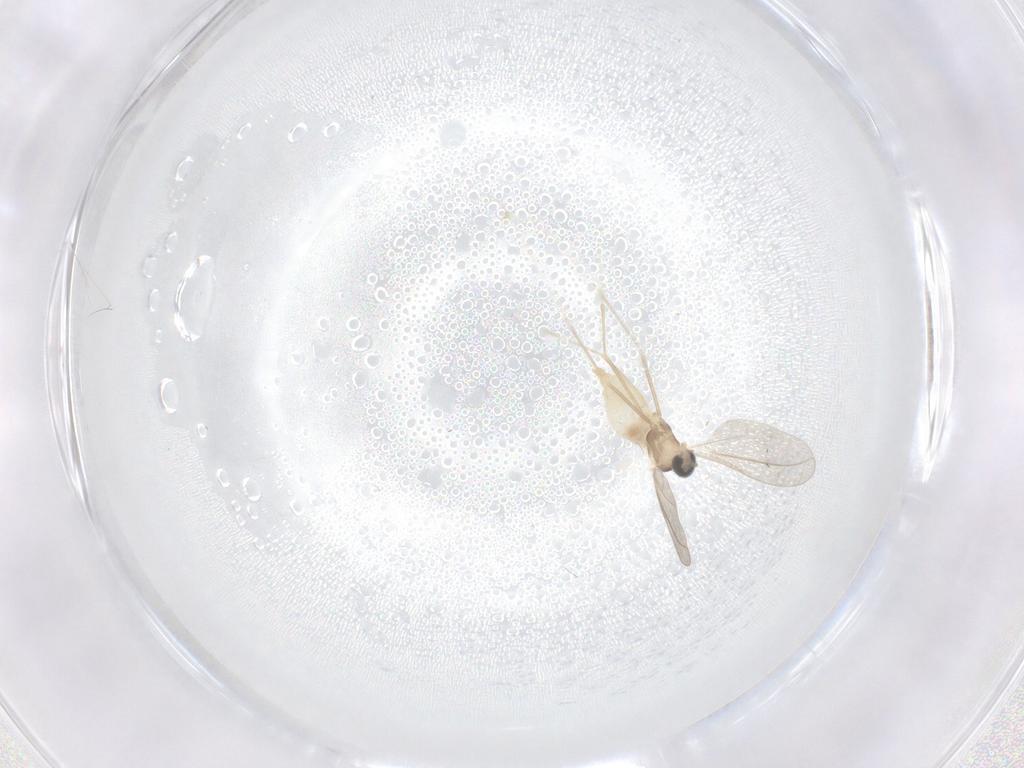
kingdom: Animalia
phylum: Arthropoda
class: Insecta
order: Diptera
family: Cecidomyiidae
